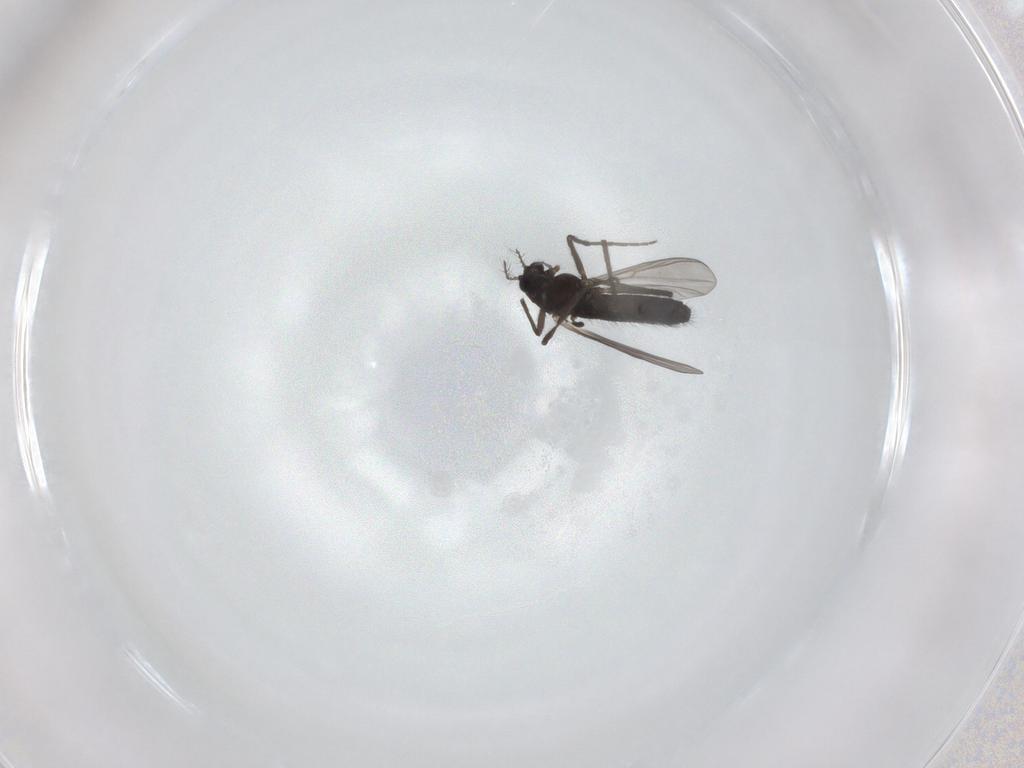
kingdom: Animalia
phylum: Arthropoda
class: Insecta
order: Diptera
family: Chironomidae
